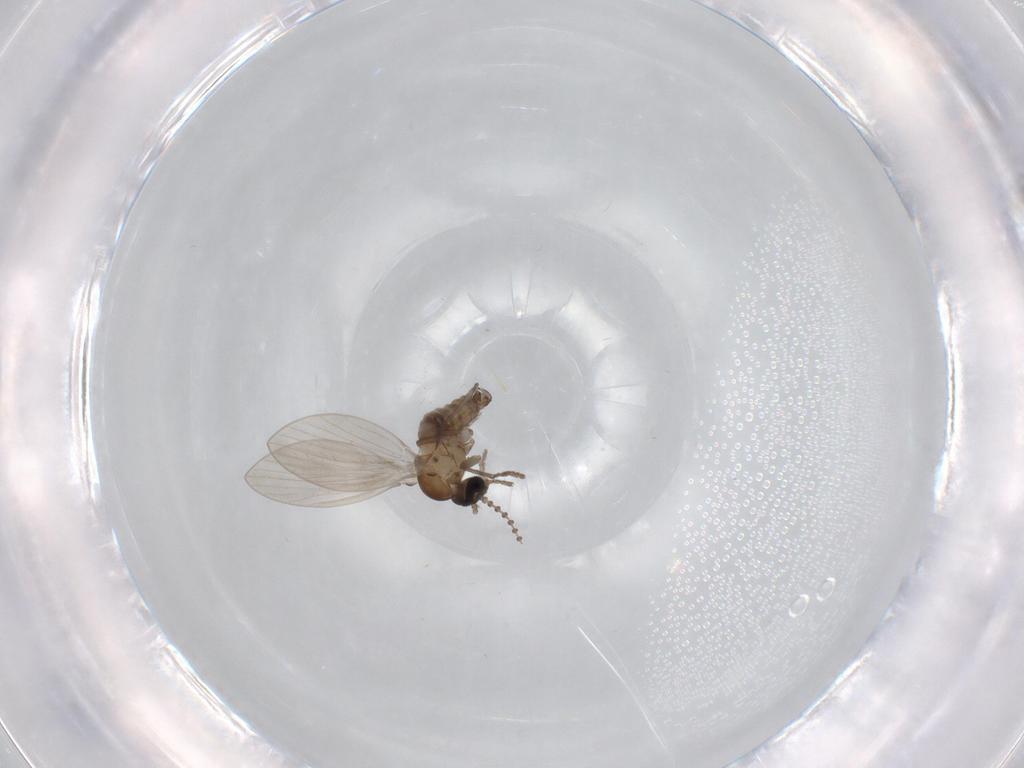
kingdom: Animalia
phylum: Arthropoda
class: Insecta
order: Diptera
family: Psychodidae
